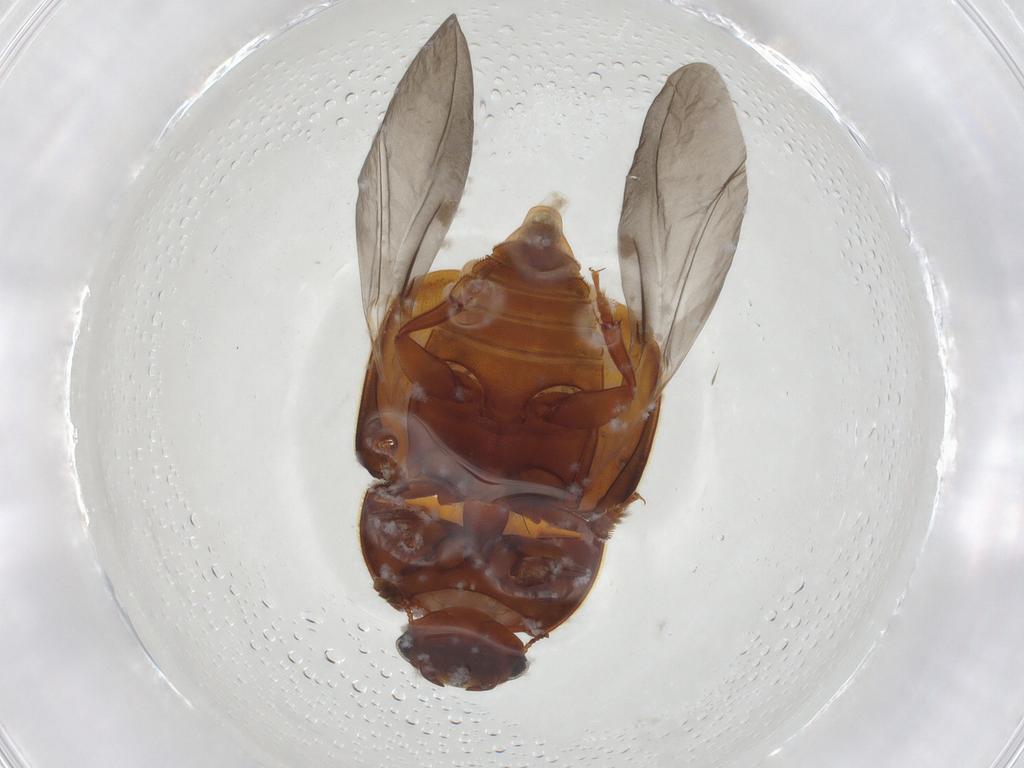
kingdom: Animalia
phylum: Arthropoda
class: Insecta
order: Coleoptera
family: Nitidulidae
